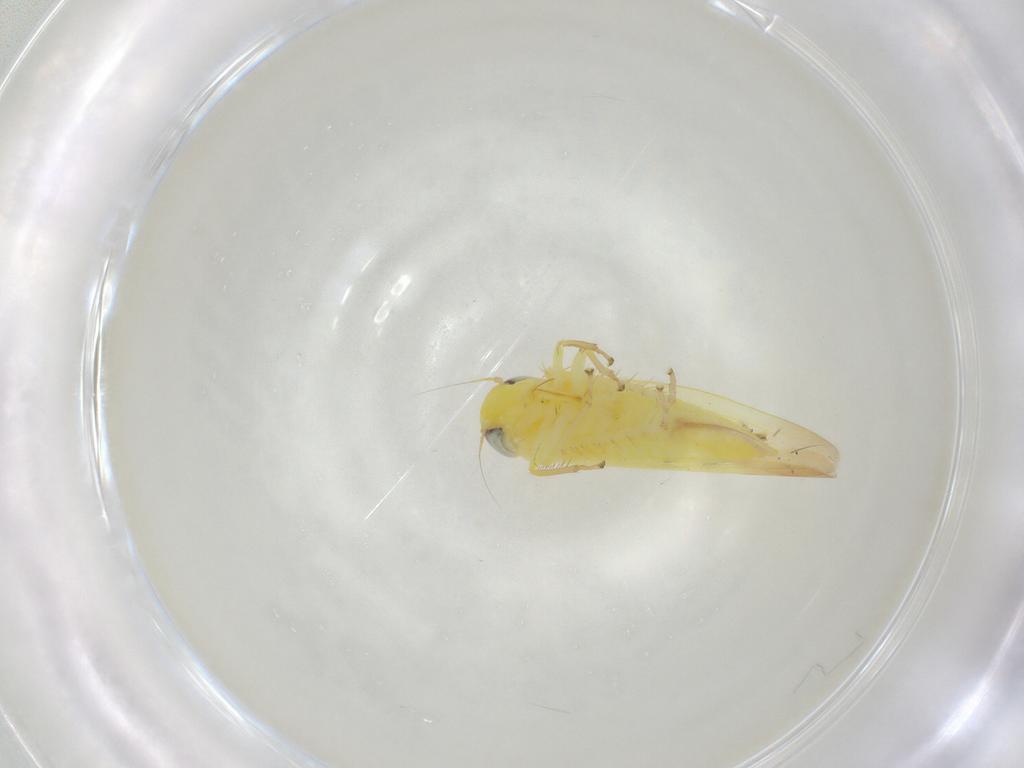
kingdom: Animalia
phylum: Arthropoda
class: Insecta
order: Hemiptera
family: Cicadellidae
